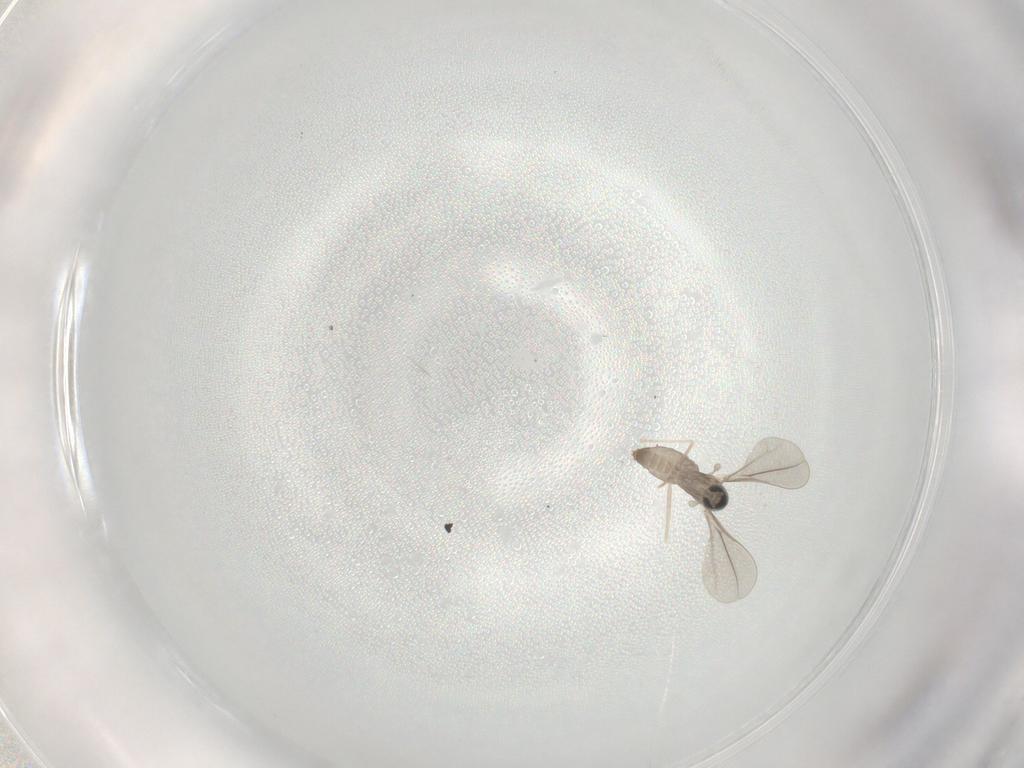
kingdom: Animalia
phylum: Arthropoda
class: Insecta
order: Diptera
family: Cecidomyiidae
